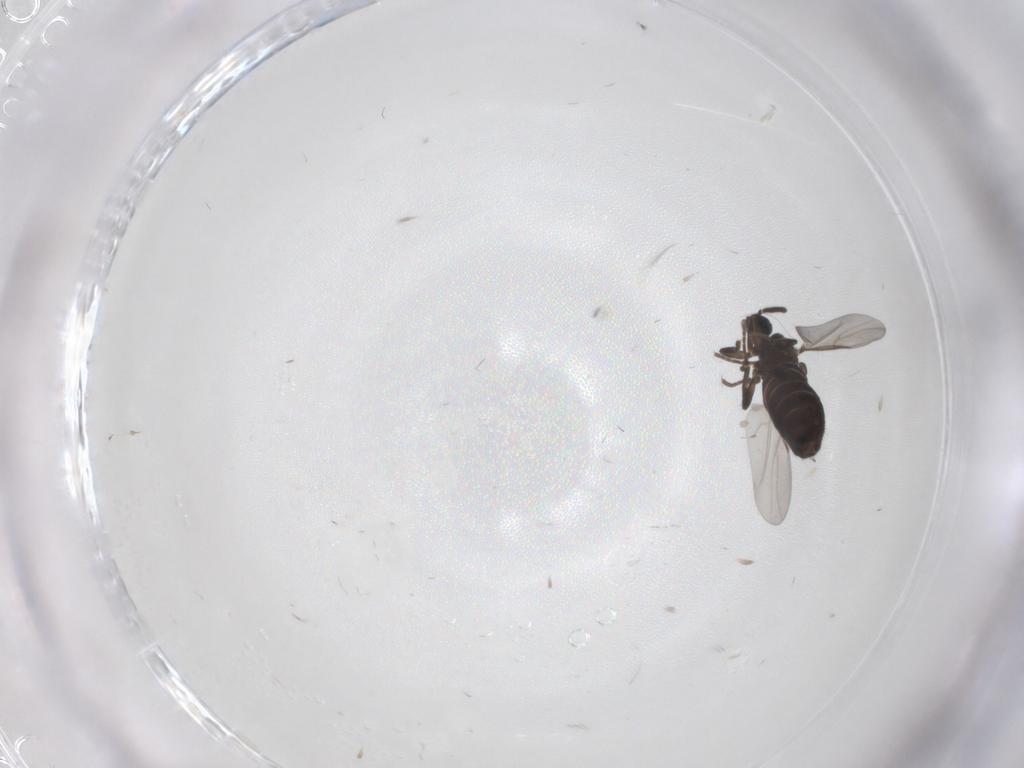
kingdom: Animalia
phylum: Arthropoda
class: Insecta
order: Diptera
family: Scatopsidae
